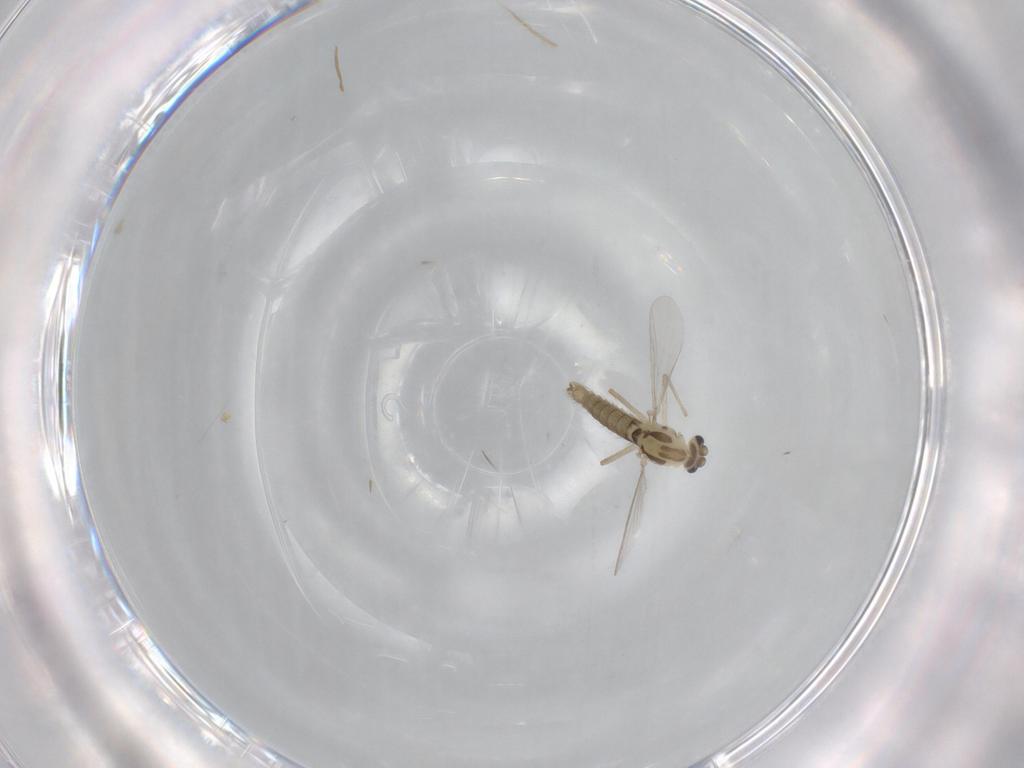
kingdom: Animalia
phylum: Arthropoda
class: Insecta
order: Diptera
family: Chironomidae
